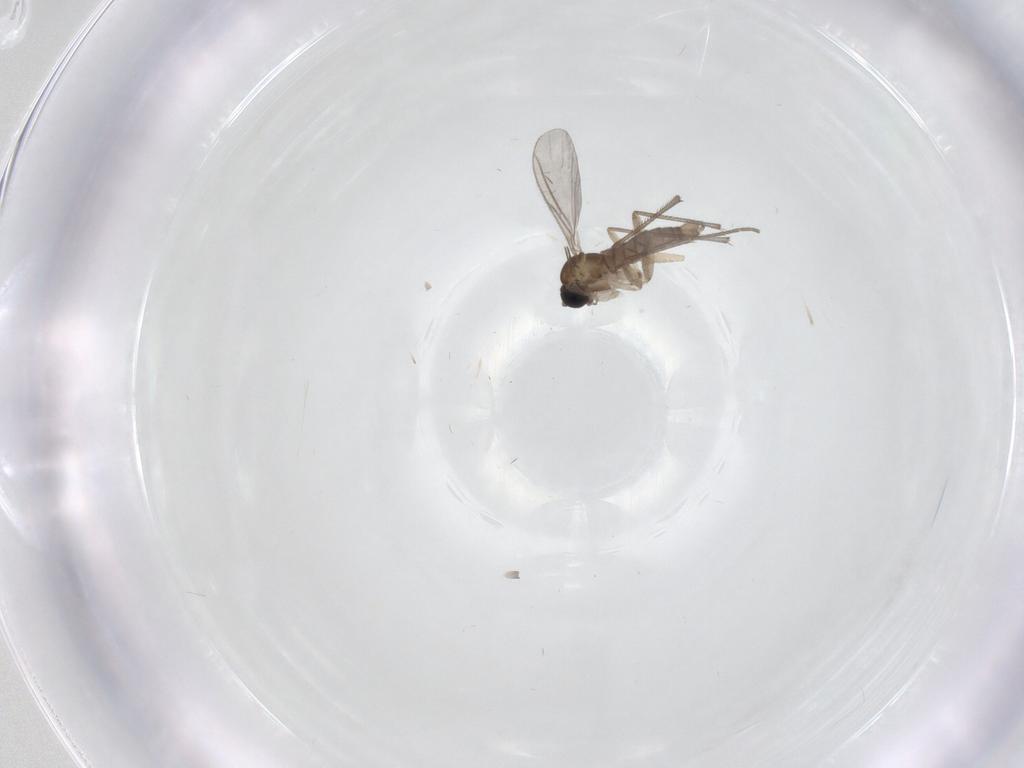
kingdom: Animalia
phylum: Arthropoda
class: Insecta
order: Diptera
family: Sciaridae
